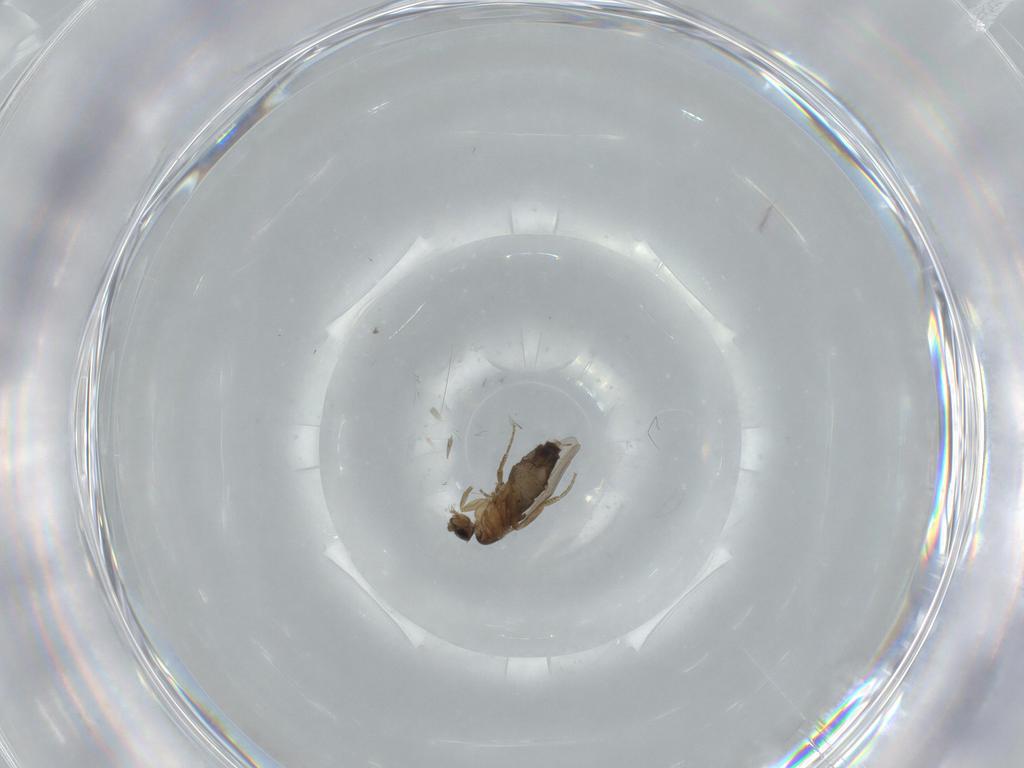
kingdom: Animalia
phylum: Arthropoda
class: Insecta
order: Diptera
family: Phoridae
